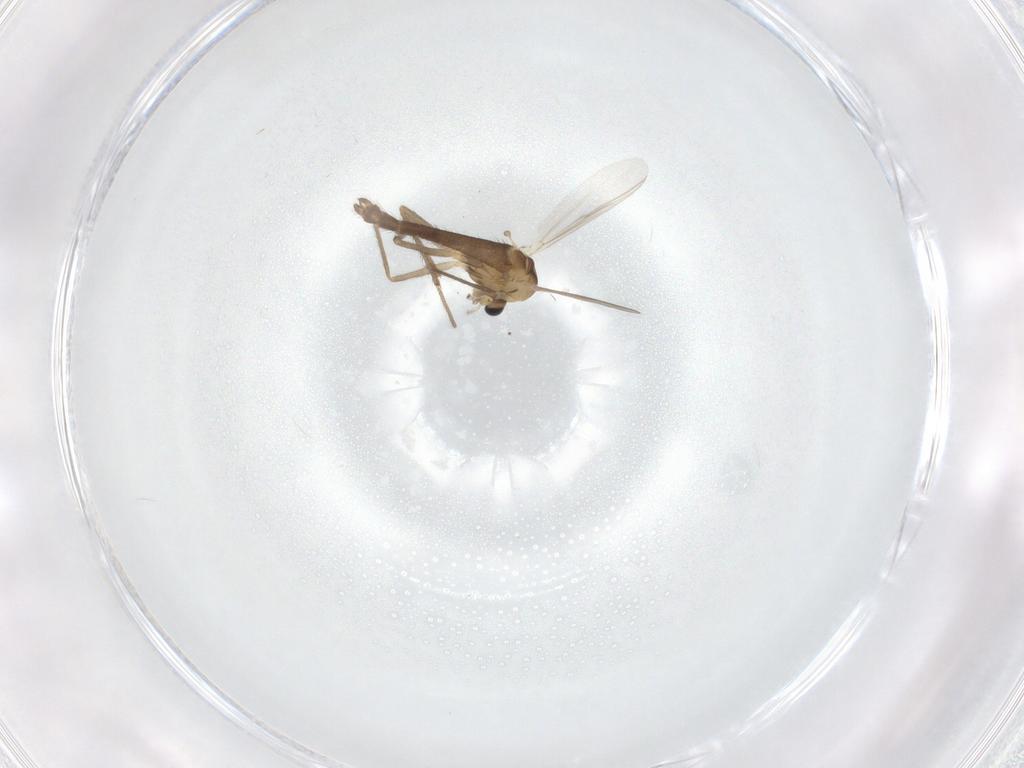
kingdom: Animalia
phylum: Arthropoda
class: Insecta
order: Diptera
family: Chironomidae
